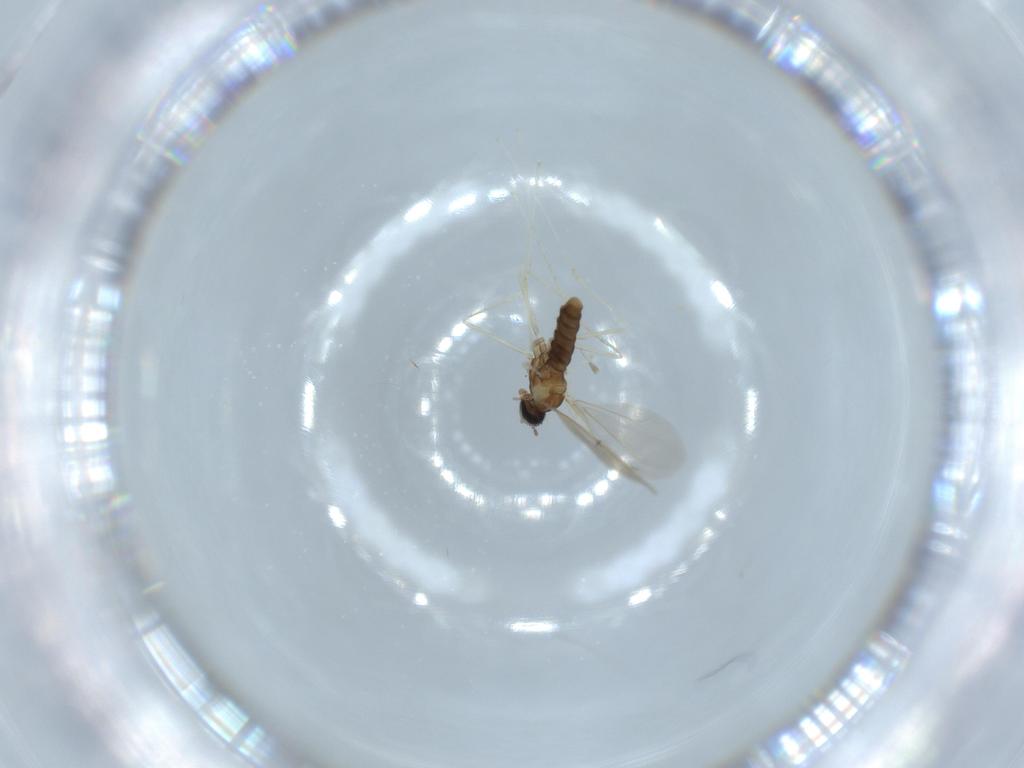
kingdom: Animalia
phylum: Arthropoda
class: Insecta
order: Diptera
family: Cecidomyiidae
